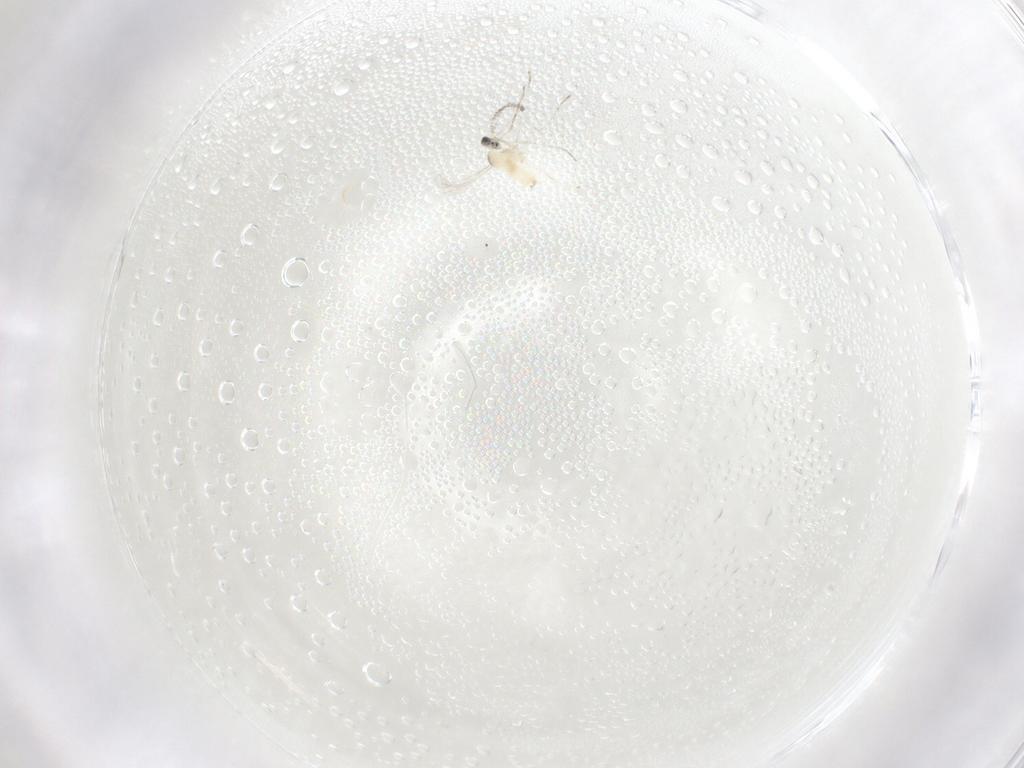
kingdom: Animalia
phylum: Arthropoda
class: Insecta
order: Diptera
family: Cecidomyiidae
